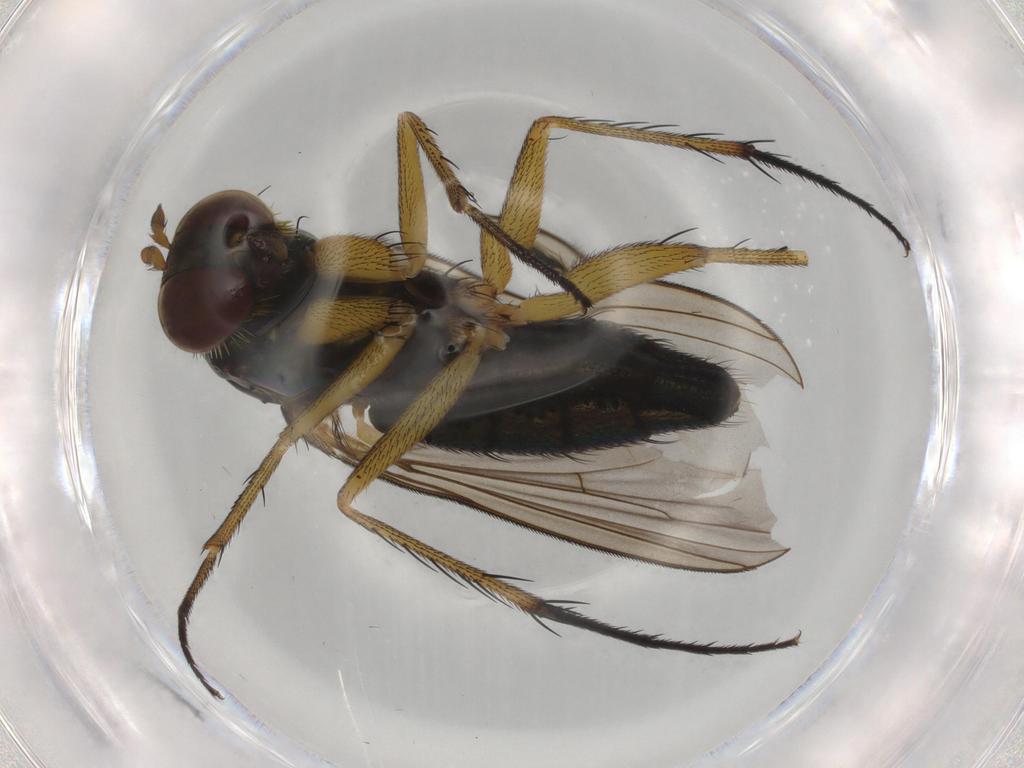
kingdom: Animalia
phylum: Arthropoda
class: Insecta
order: Diptera
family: Dolichopodidae
